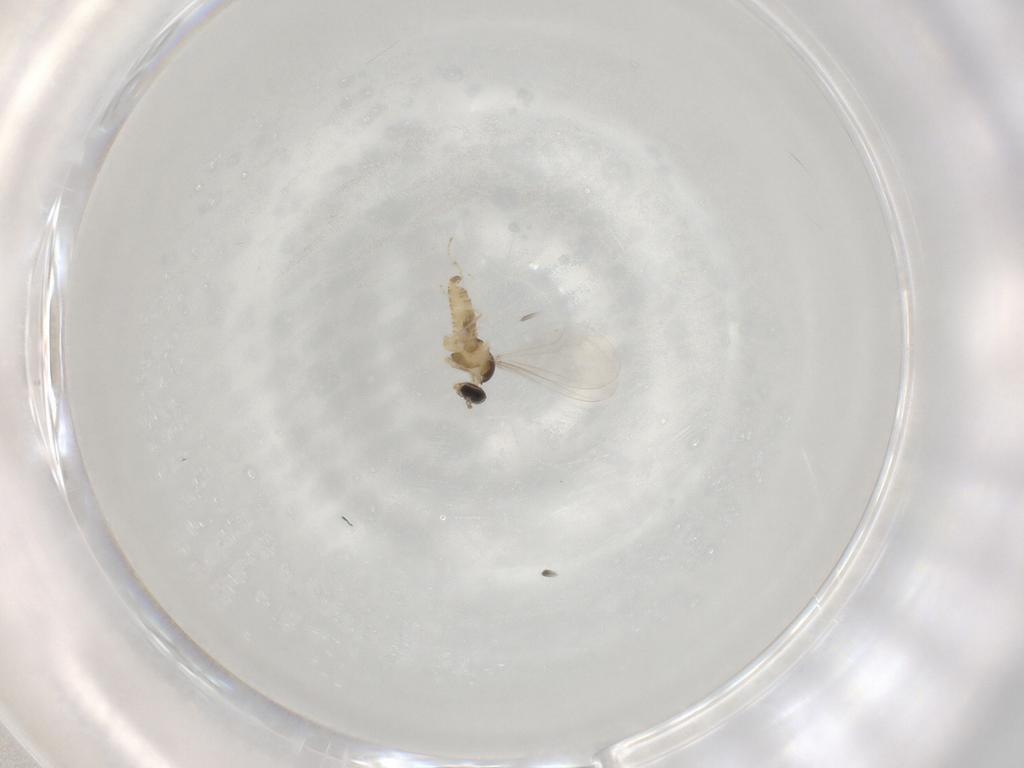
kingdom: Animalia
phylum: Arthropoda
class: Insecta
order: Diptera
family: Cecidomyiidae
